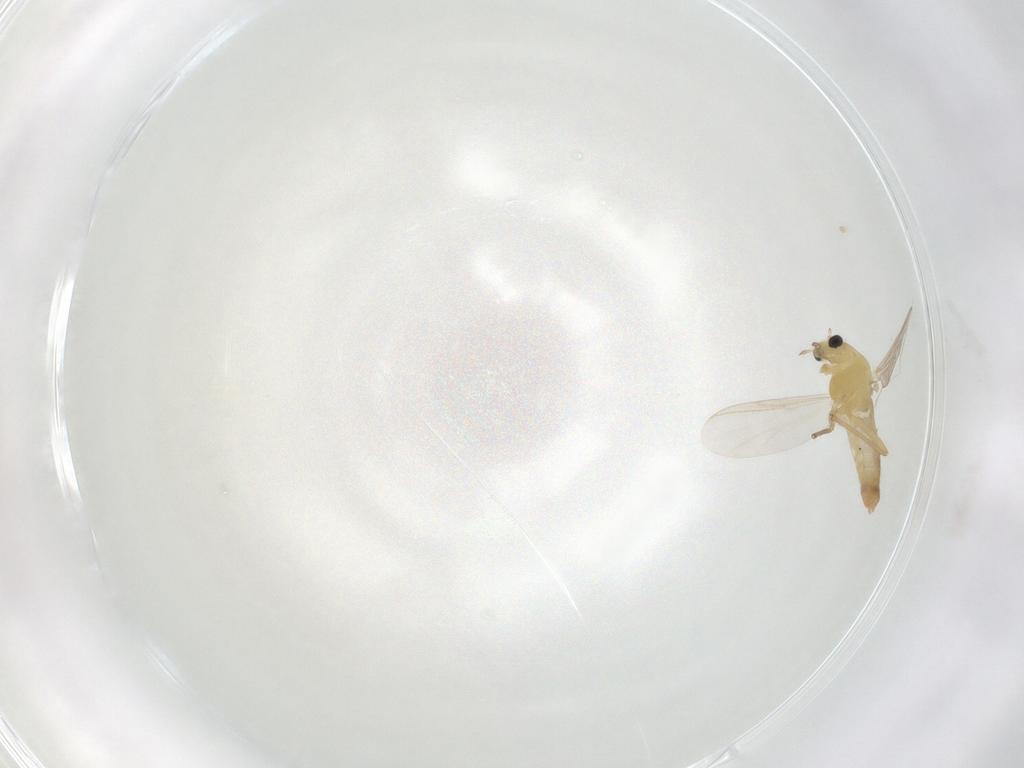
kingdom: Animalia
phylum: Arthropoda
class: Insecta
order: Diptera
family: Chironomidae
